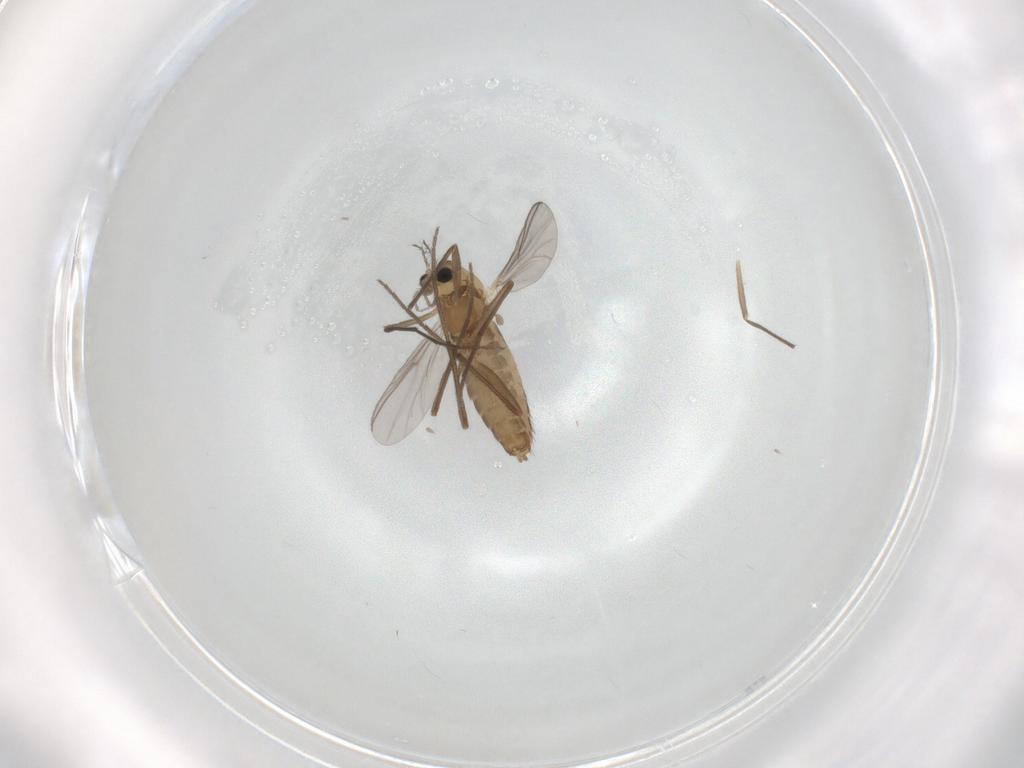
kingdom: Animalia
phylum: Arthropoda
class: Insecta
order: Diptera
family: Chironomidae
